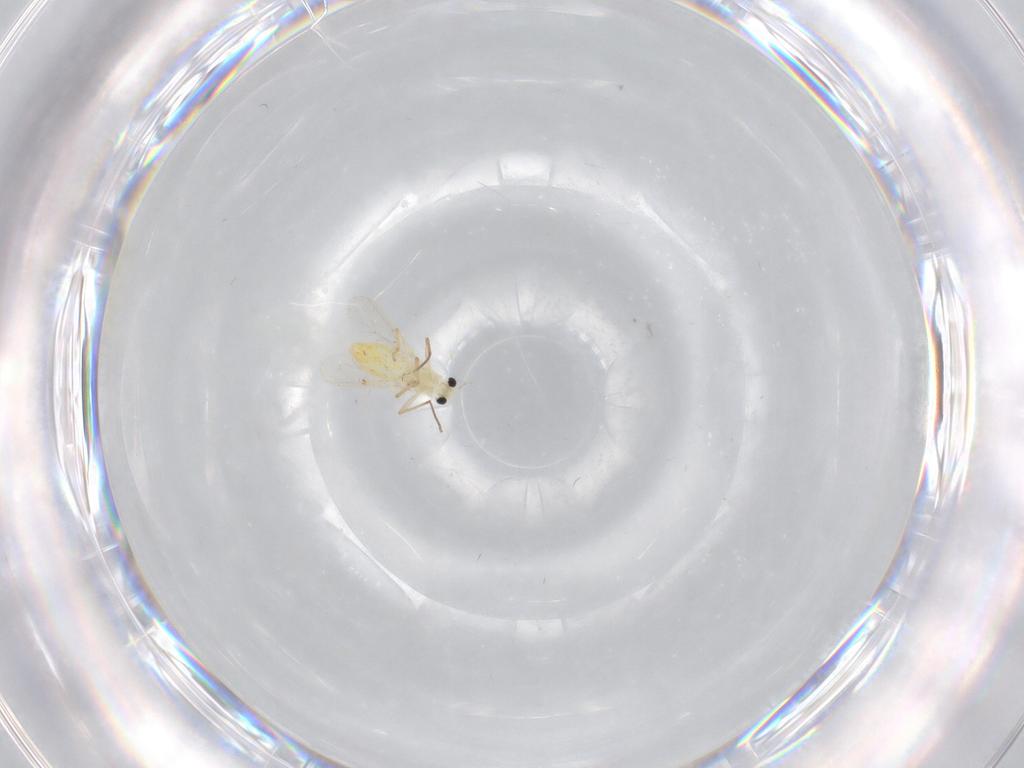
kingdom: Animalia
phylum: Arthropoda
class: Insecta
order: Diptera
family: Chironomidae
